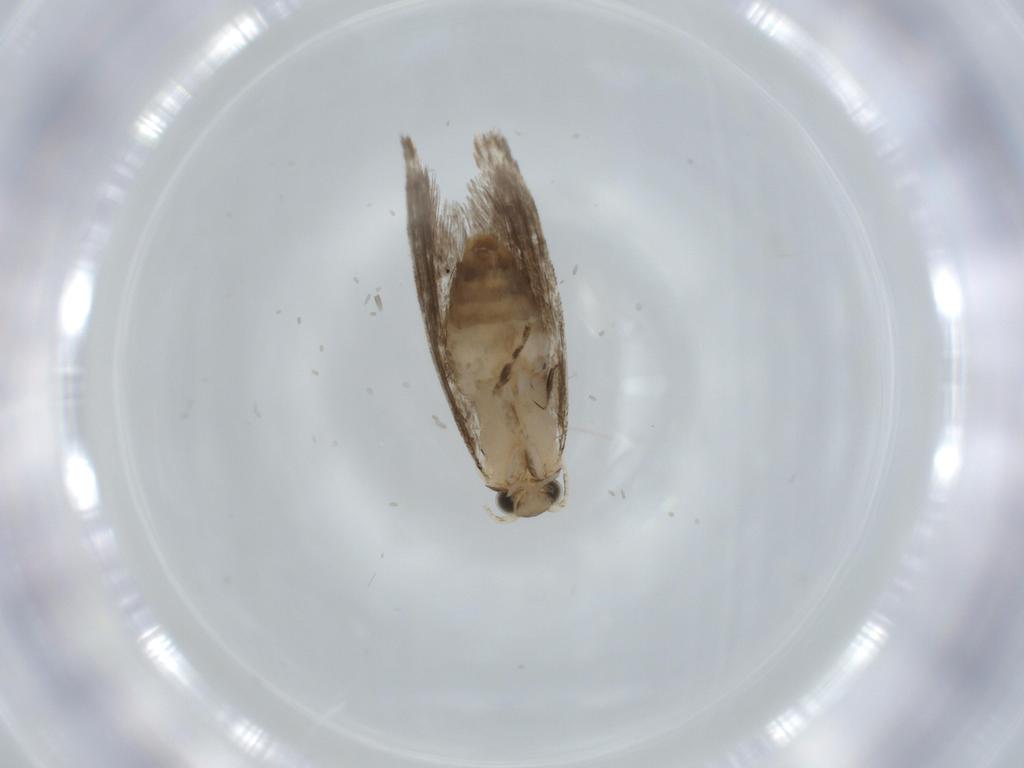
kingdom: Animalia
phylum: Arthropoda
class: Insecta
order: Lepidoptera
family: Tineidae
